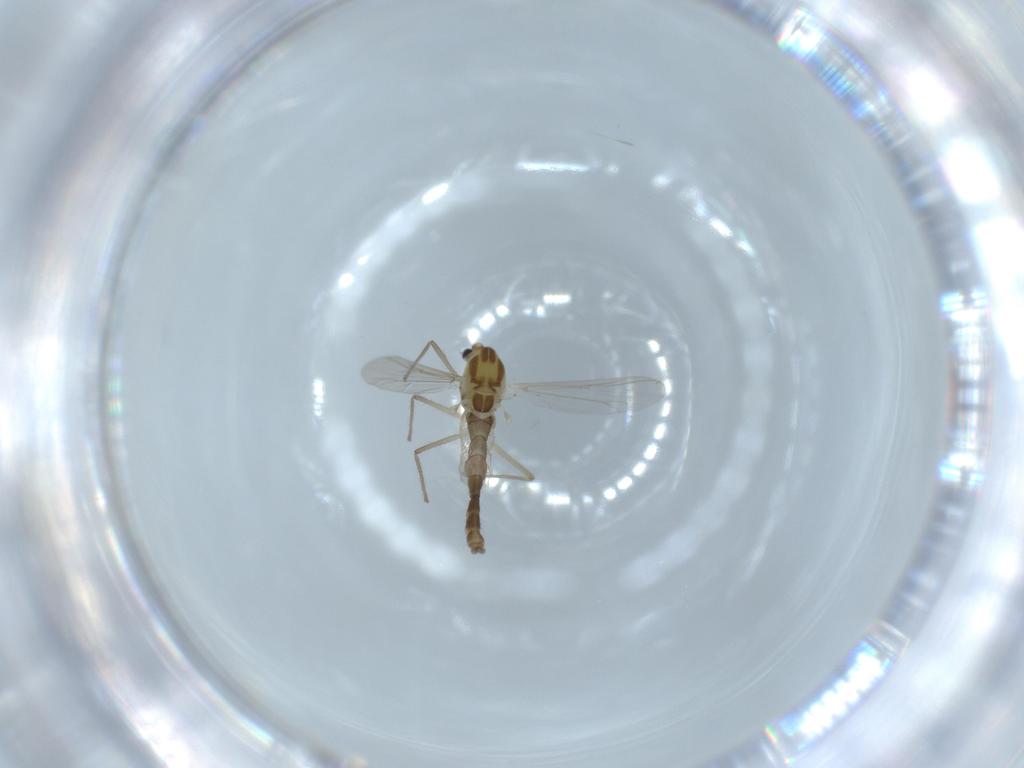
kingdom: Animalia
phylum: Arthropoda
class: Insecta
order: Diptera
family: Chironomidae
